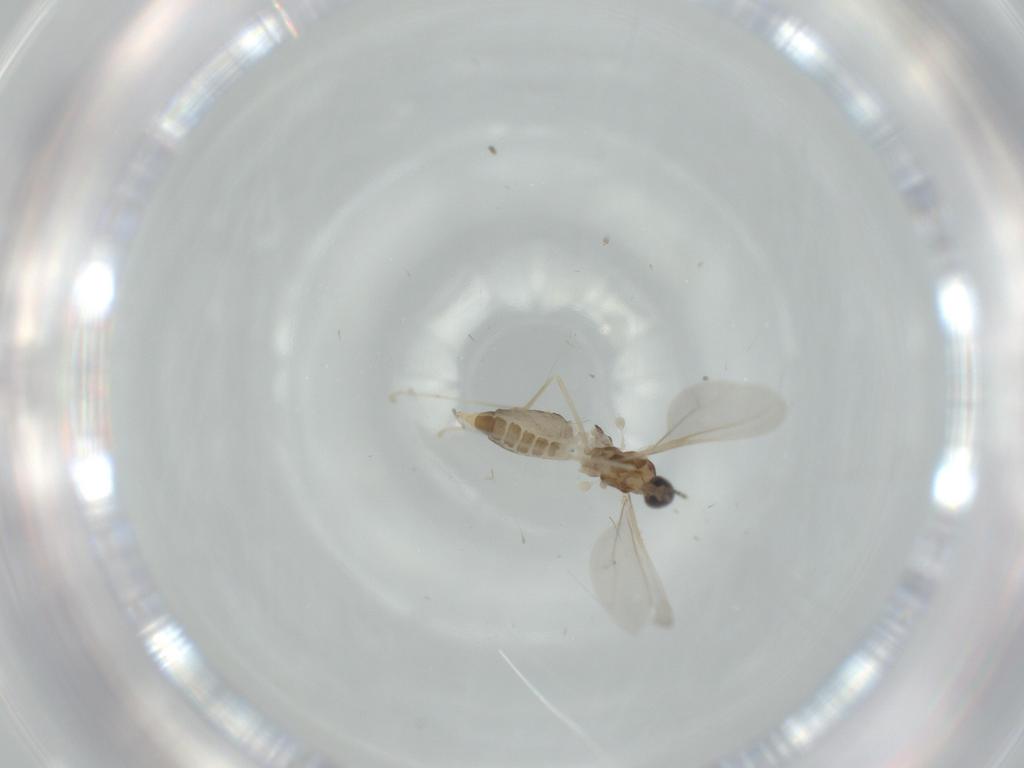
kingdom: Animalia
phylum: Arthropoda
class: Insecta
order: Diptera
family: Cecidomyiidae
